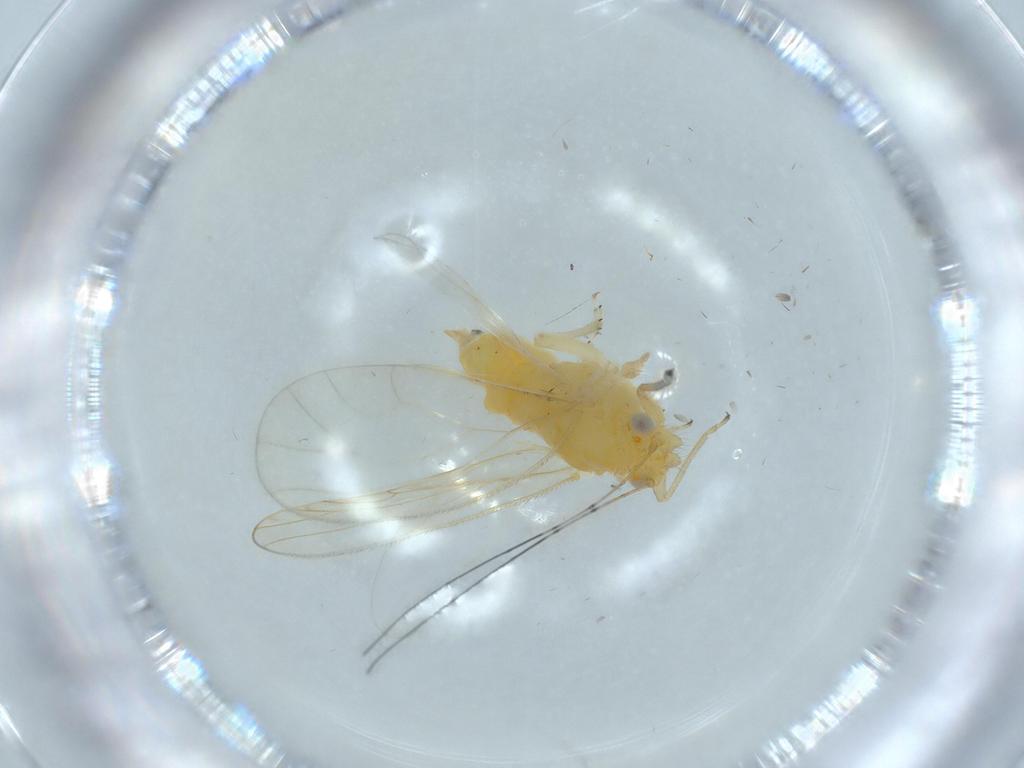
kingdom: Animalia
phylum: Arthropoda
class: Insecta
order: Hemiptera
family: Psyllidae
